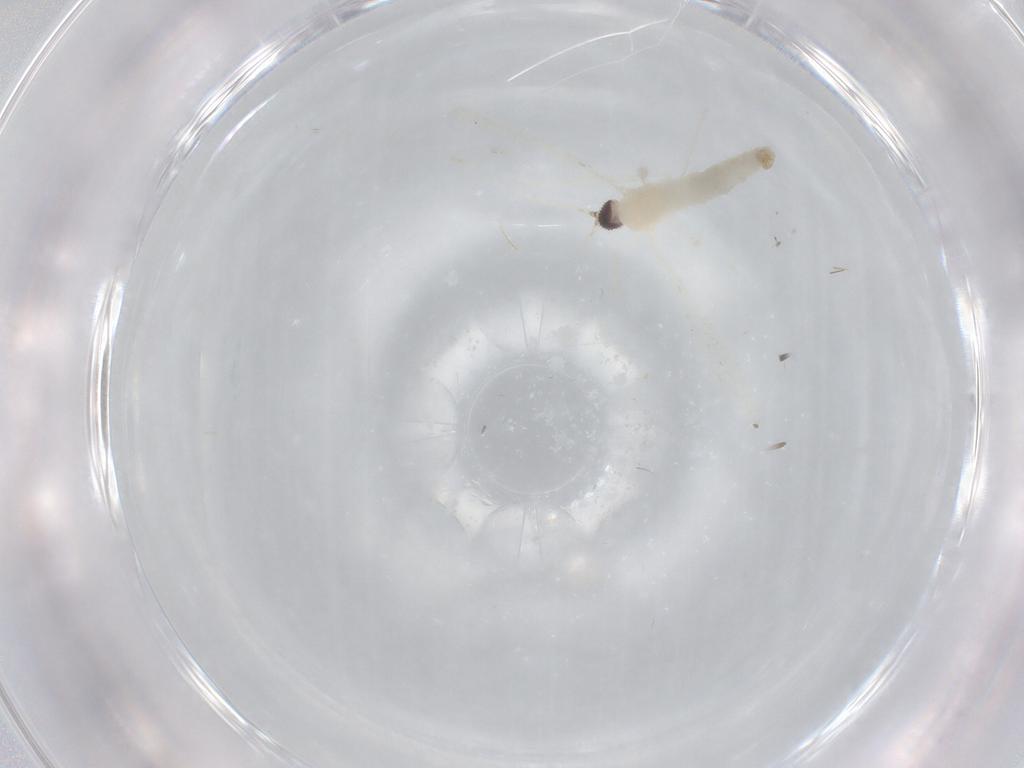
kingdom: Animalia
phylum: Arthropoda
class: Insecta
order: Diptera
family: Cecidomyiidae
